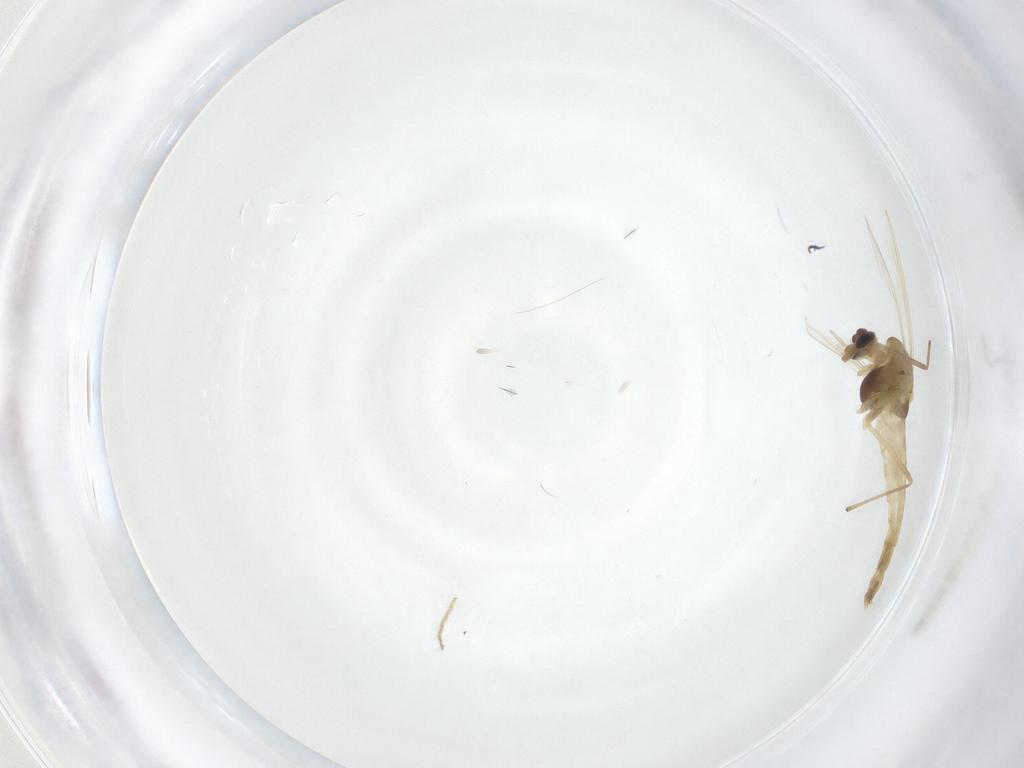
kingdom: Animalia
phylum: Arthropoda
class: Insecta
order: Diptera
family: Chironomidae
